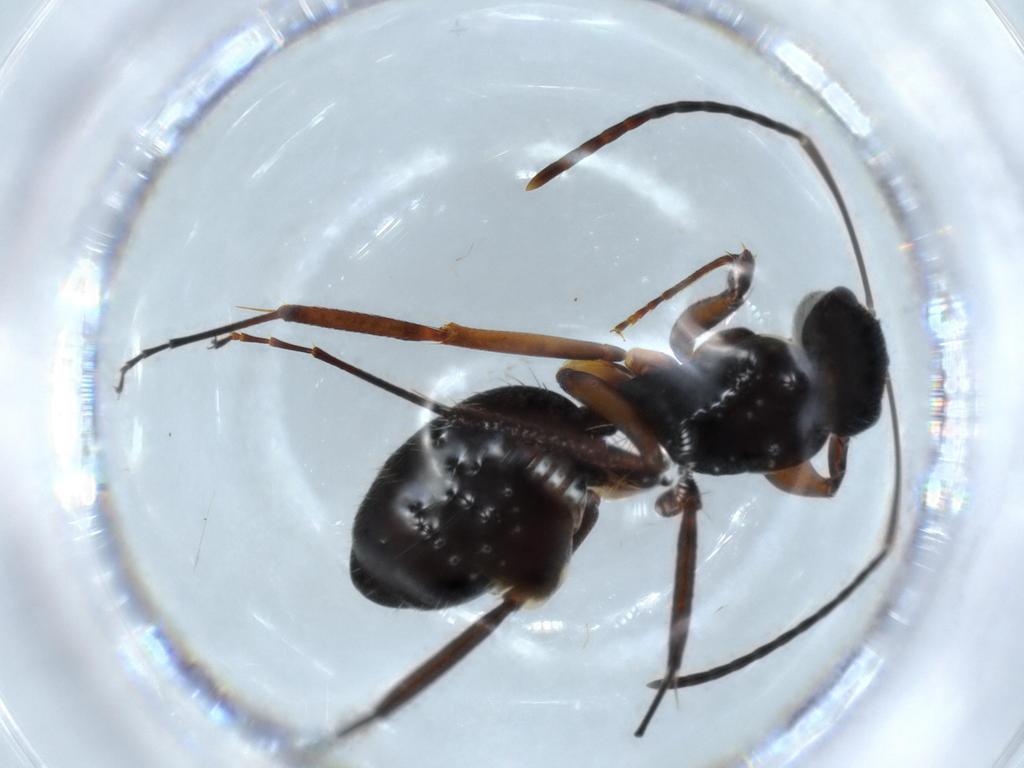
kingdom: Animalia
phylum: Arthropoda
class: Insecta
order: Hymenoptera
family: Formicidae
